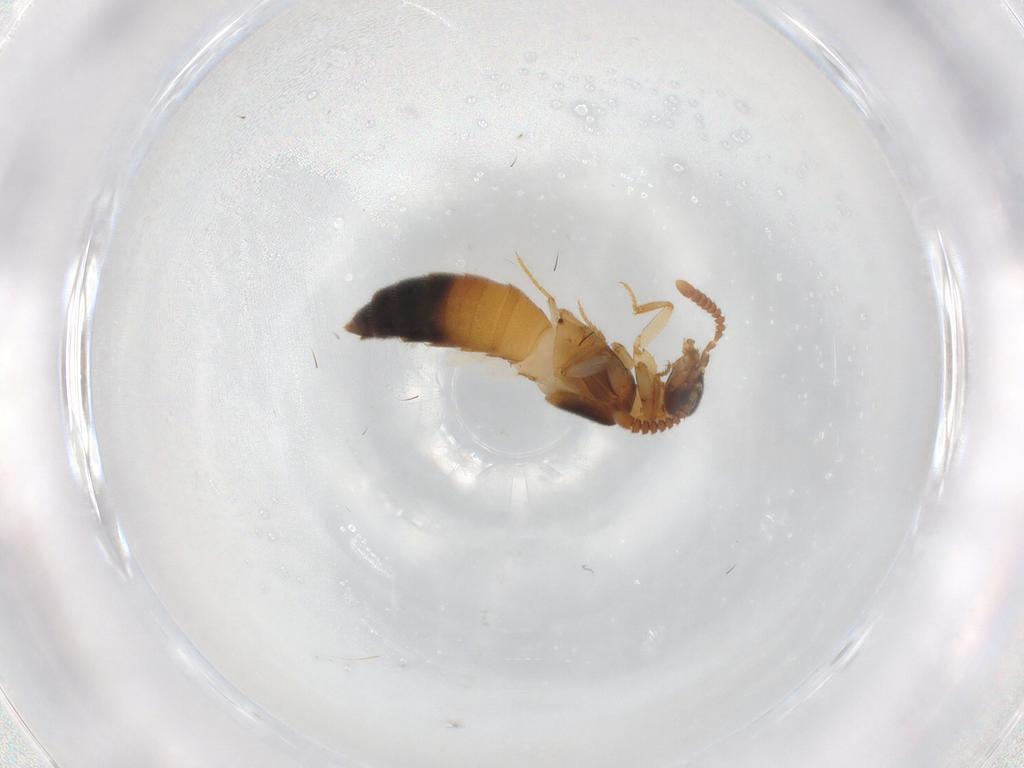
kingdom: Animalia
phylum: Arthropoda
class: Insecta
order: Coleoptera
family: Staphylinidae
